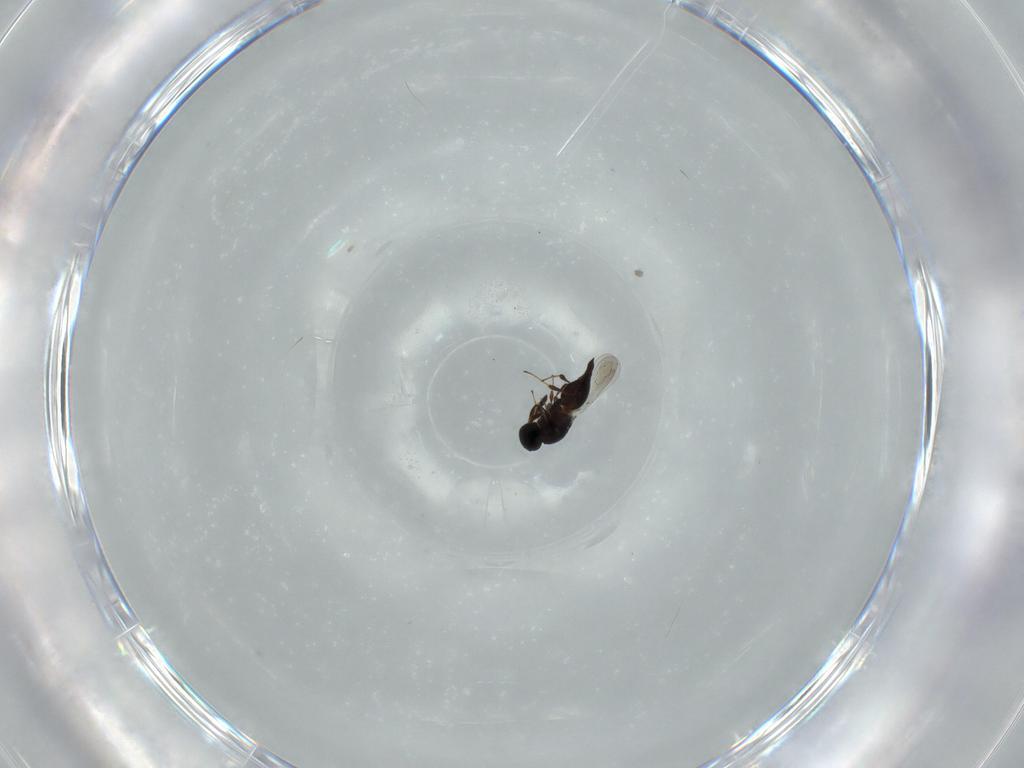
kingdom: Animalia
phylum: Arthropoda
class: Insecta
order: Hymenoptera
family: Platygastridae
